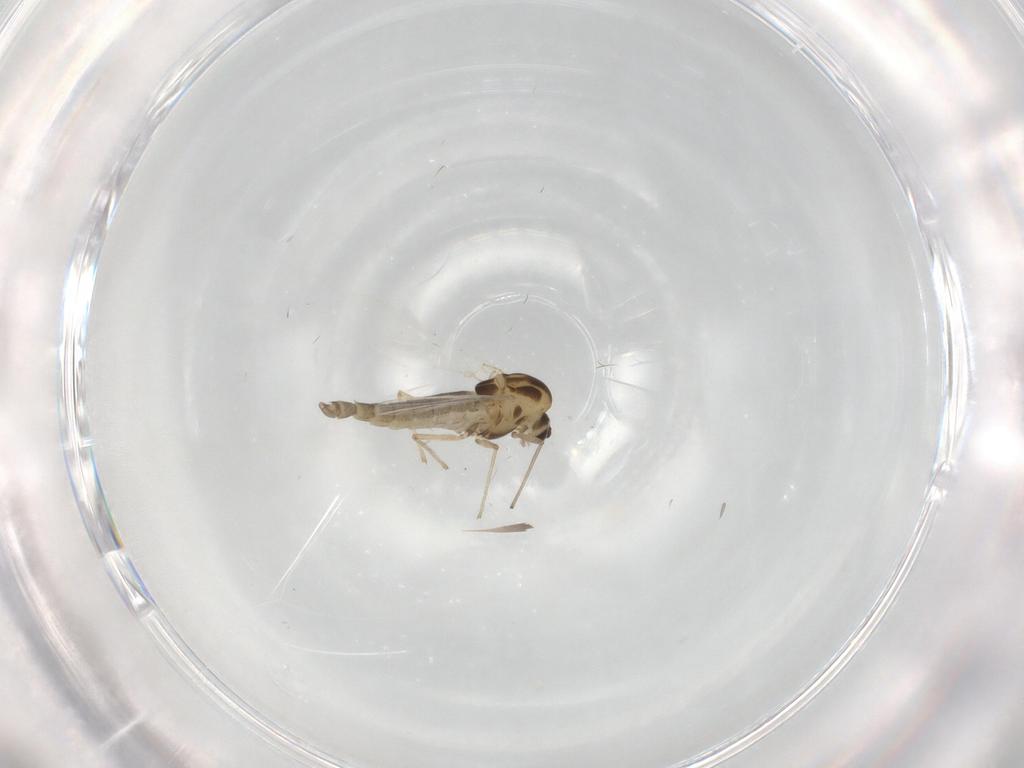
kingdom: Animalia
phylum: Arthropoda
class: Insecta
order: Diptera
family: Chironomidae
